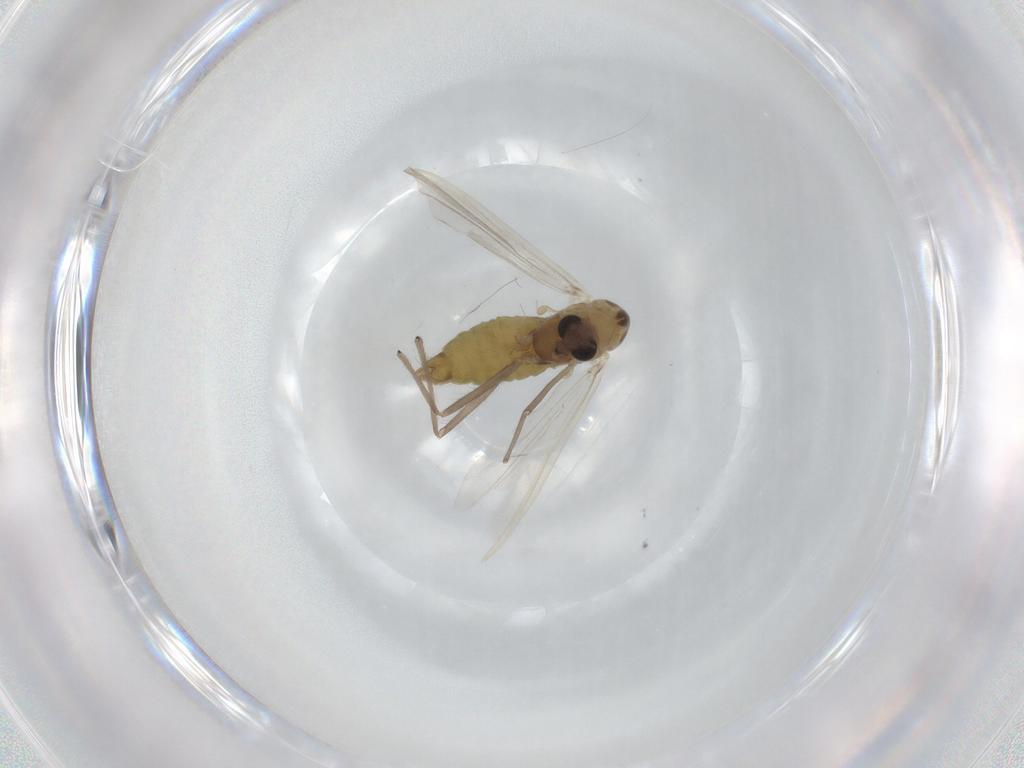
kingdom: Animalia
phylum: Arthropoda
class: Insecta
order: Diptera
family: Chironomidae
